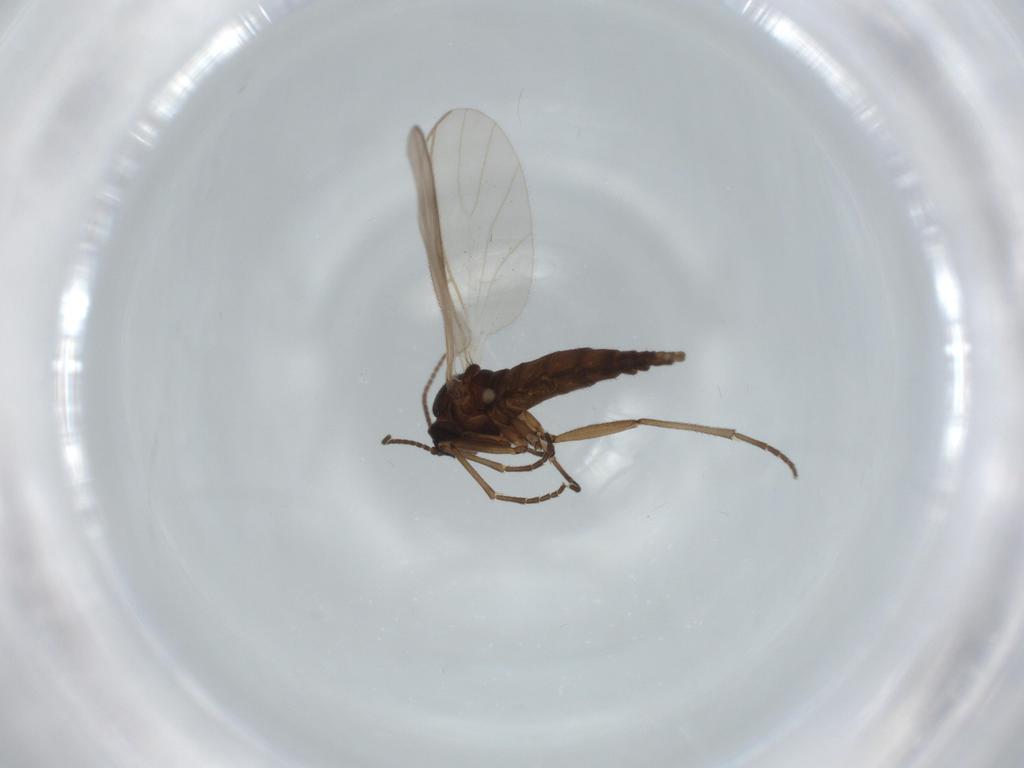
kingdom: Animalia
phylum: Arthropoda
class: Insecta
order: Diptera
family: Sciaridae
